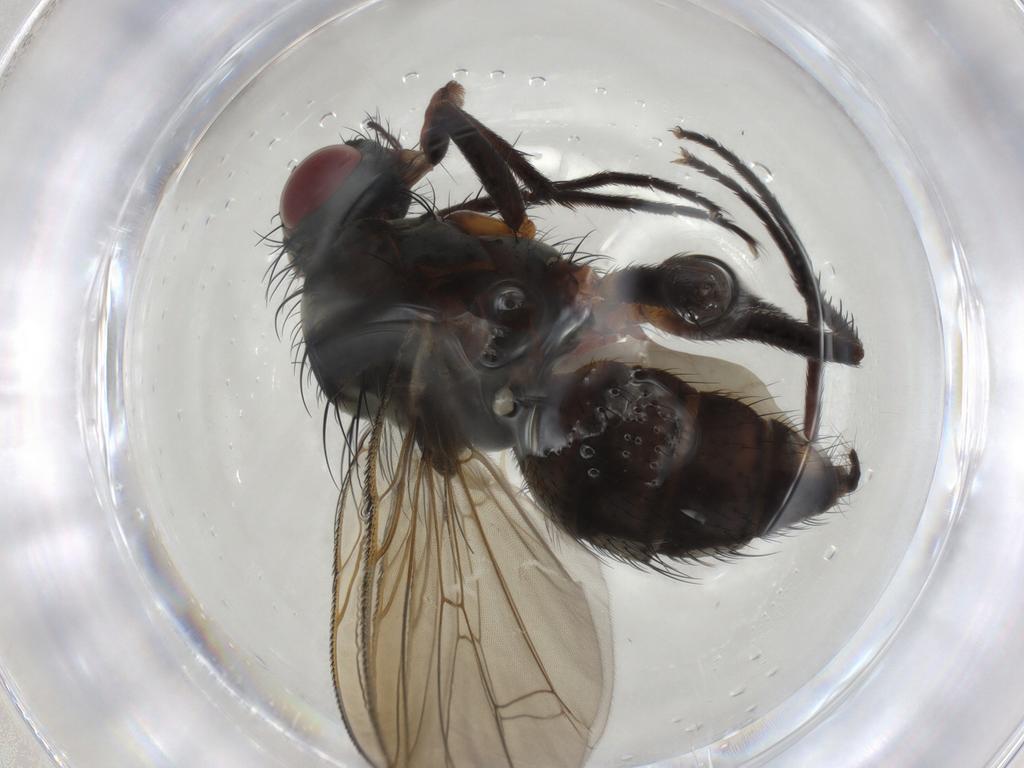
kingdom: Animalia
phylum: Arthropoda
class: Insecta
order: Diptera
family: Anthomyiidae
